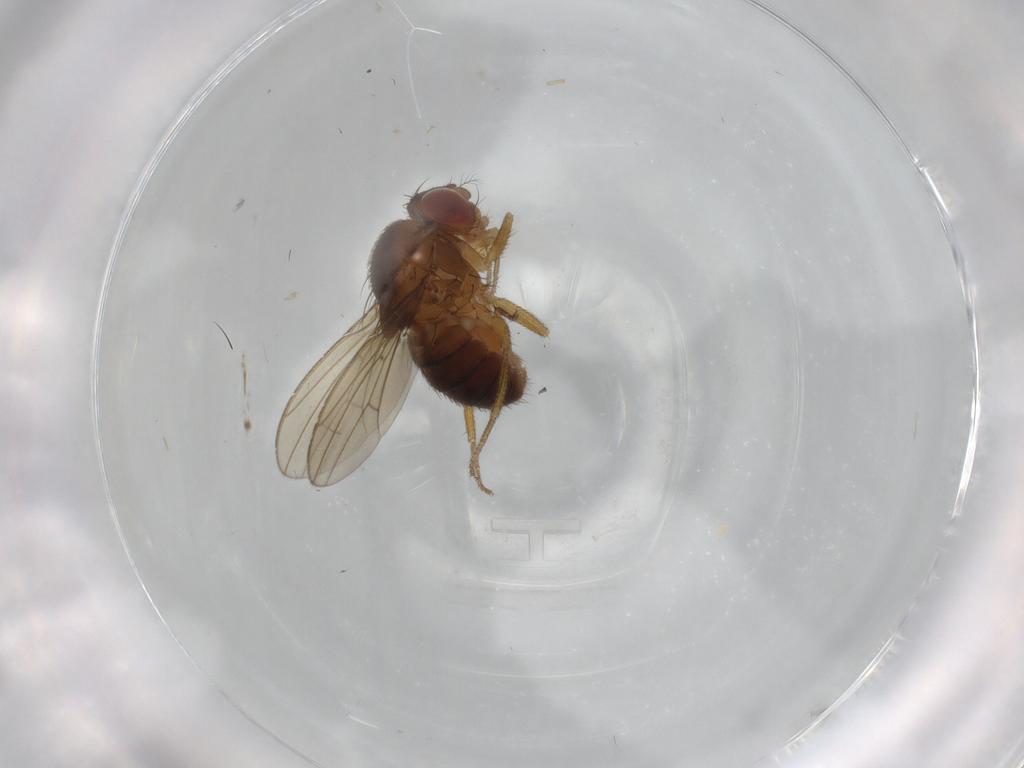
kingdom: Animalia
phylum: Arthropoda
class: Insecta
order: Diptera
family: Drosophilidae
